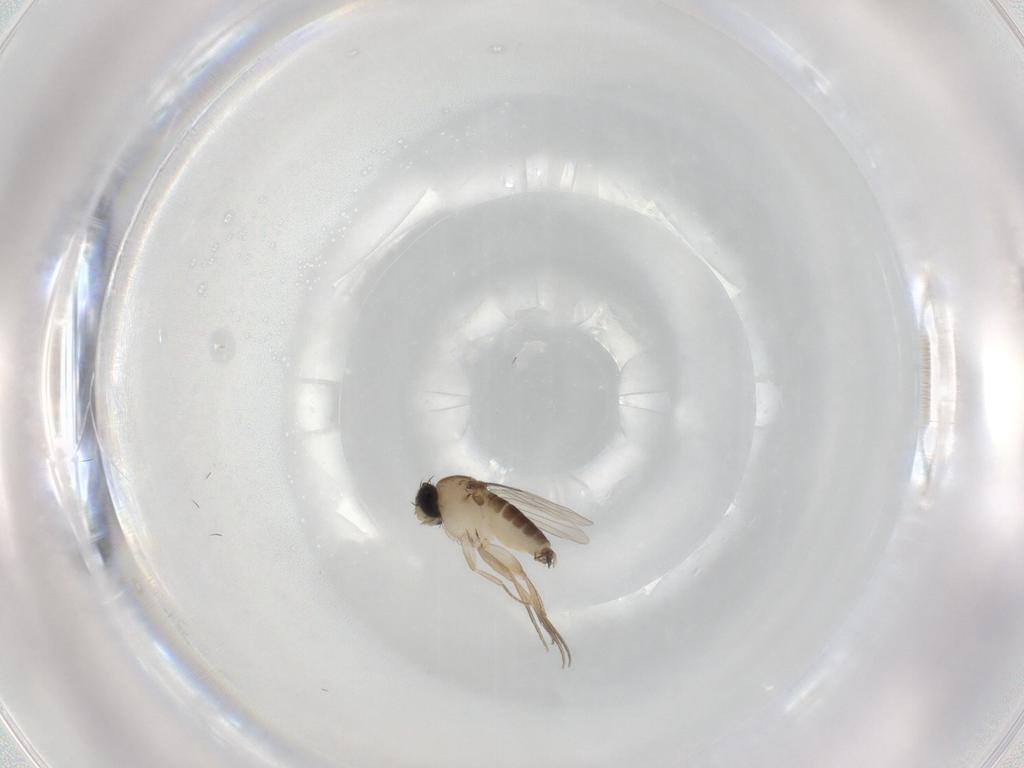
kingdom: Animalia
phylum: Arthropoda
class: Insecta
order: Diptera
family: Phoridae
